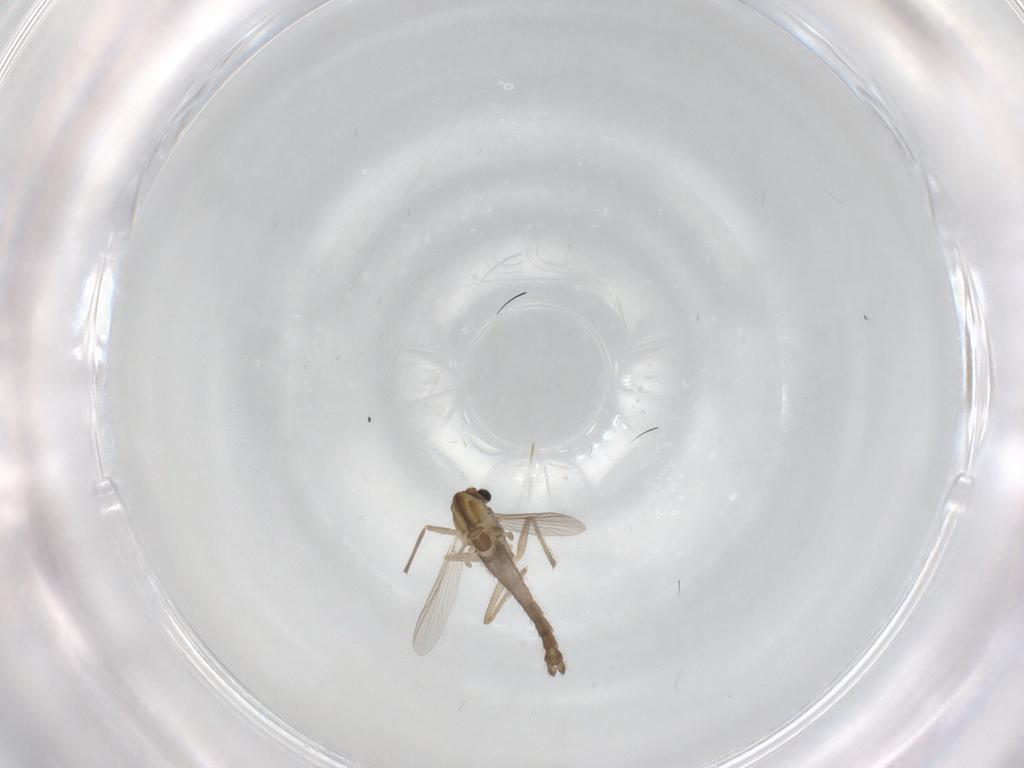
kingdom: Animalia
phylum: Arthropoda
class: Insecta
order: Diptera
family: Chironomidae
